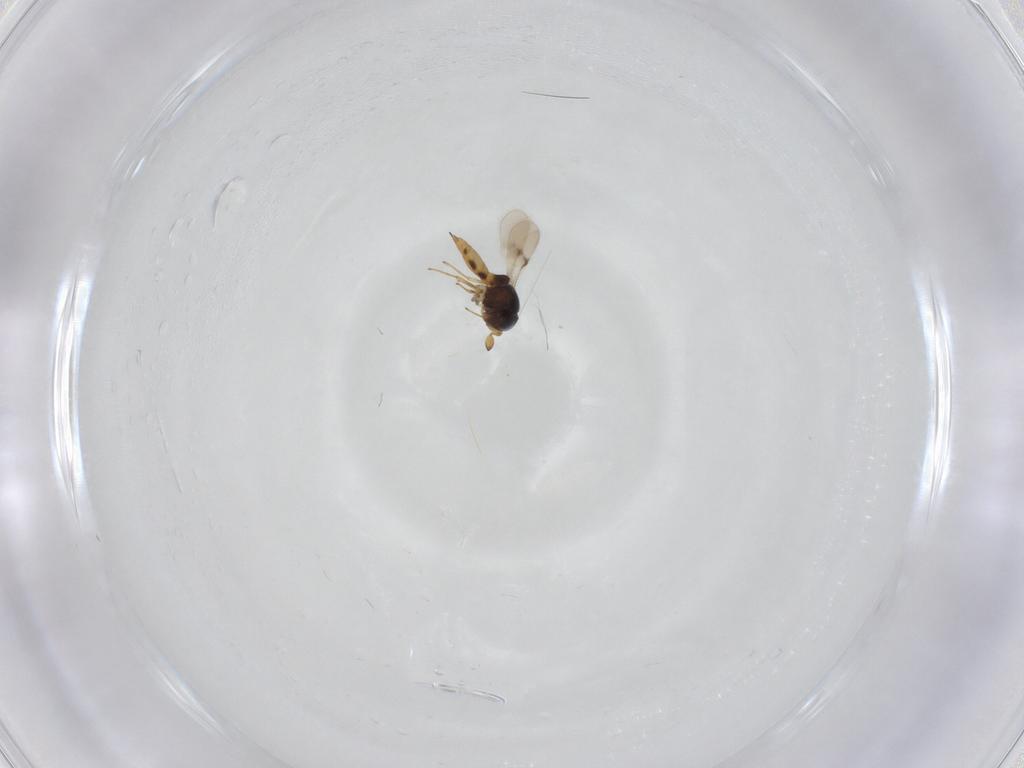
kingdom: Animalia
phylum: Arthropoda
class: Insecta
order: Hymenoptera
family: Scelionidae
